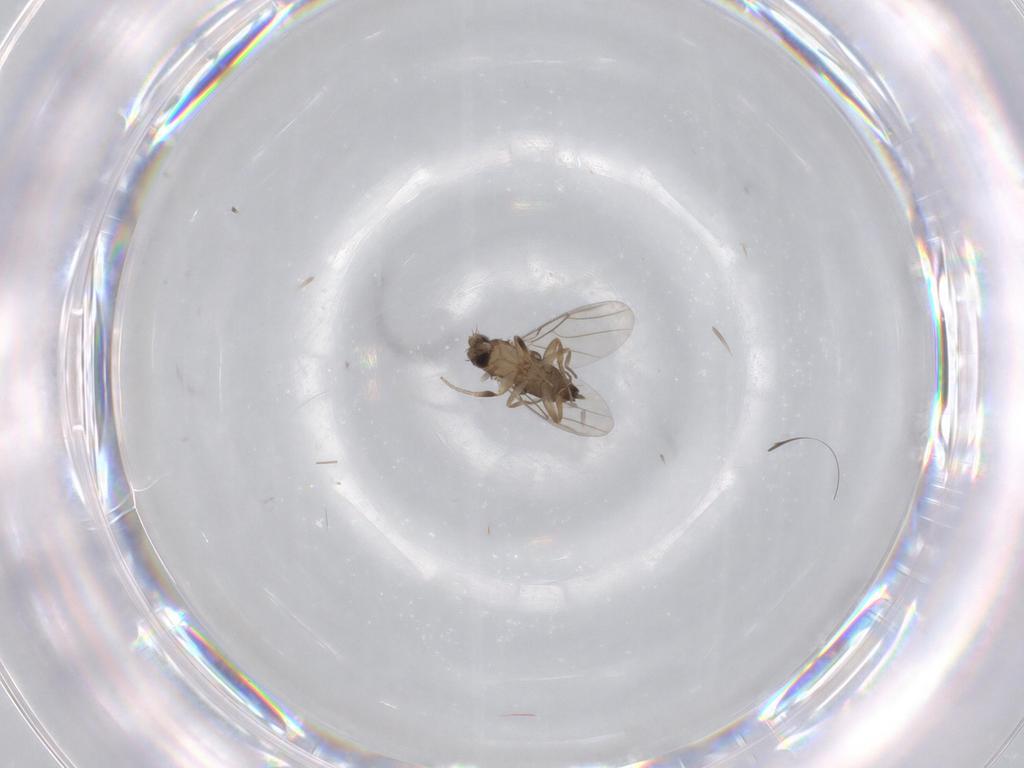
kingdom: Animalia
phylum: Arthropoda
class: Insecta
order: Diptera
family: Phoridae
